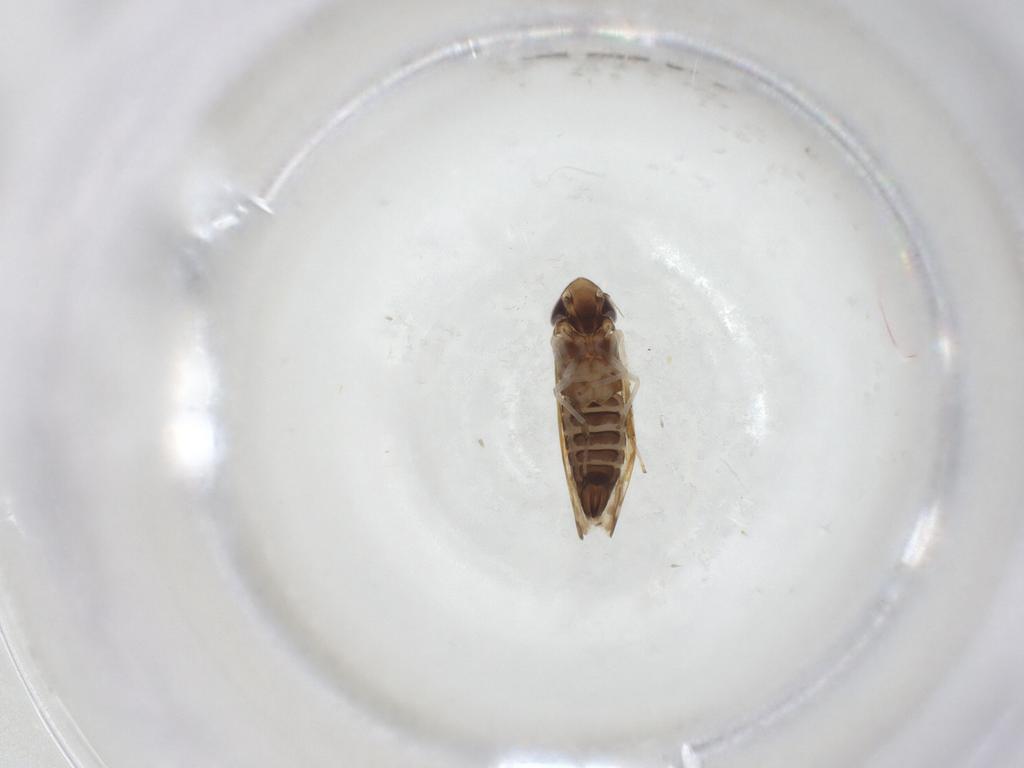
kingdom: Animalia
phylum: Arthropoda
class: Insecta
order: Hemiptera
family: Cicadellidae
